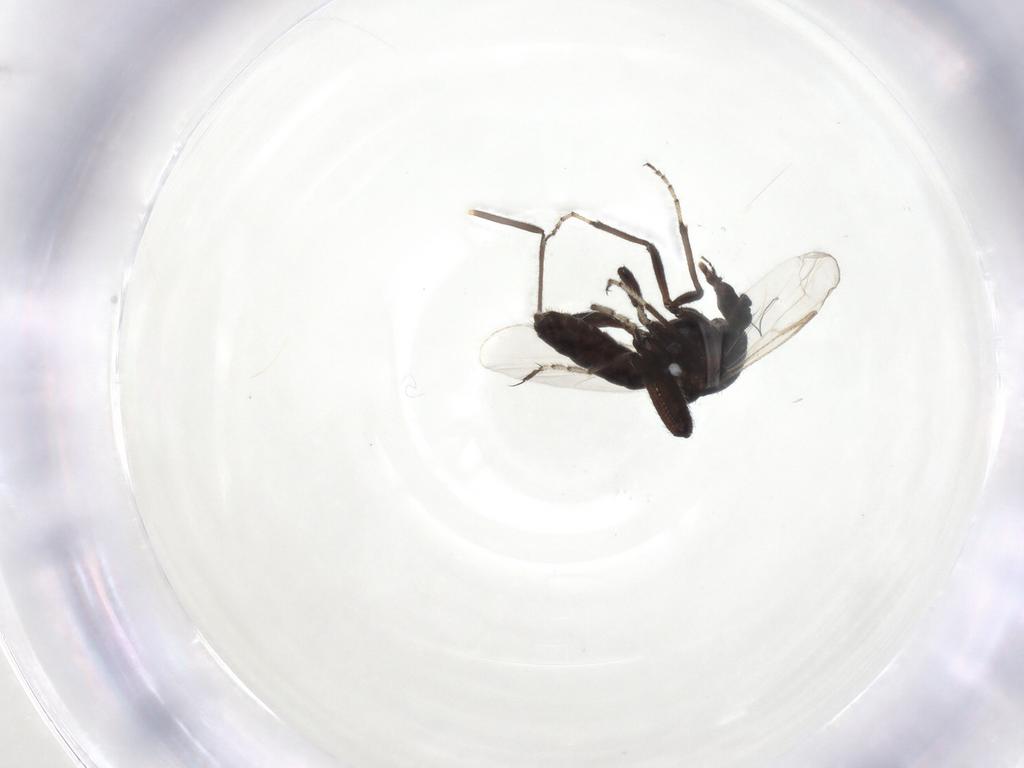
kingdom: Animalia
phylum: Arthropoda
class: Insecta
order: Diptera
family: Ceratopogonidae
